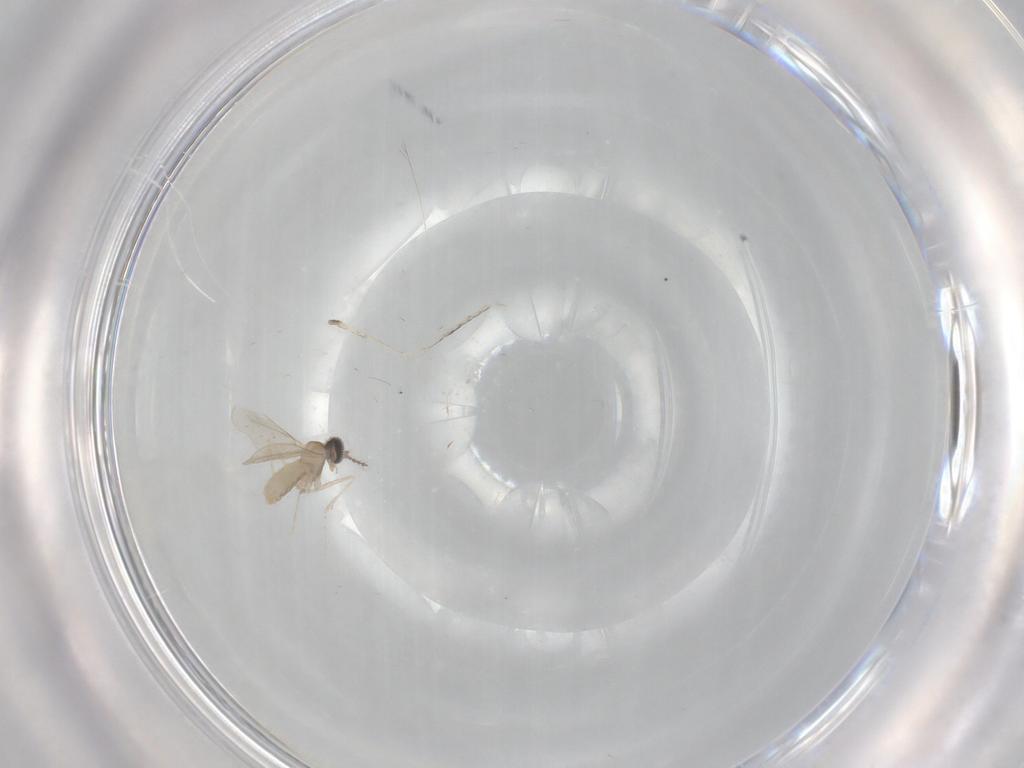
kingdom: Animalia
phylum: Arthropoda
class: Insecta
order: Diptera
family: Cecidomyiidae
